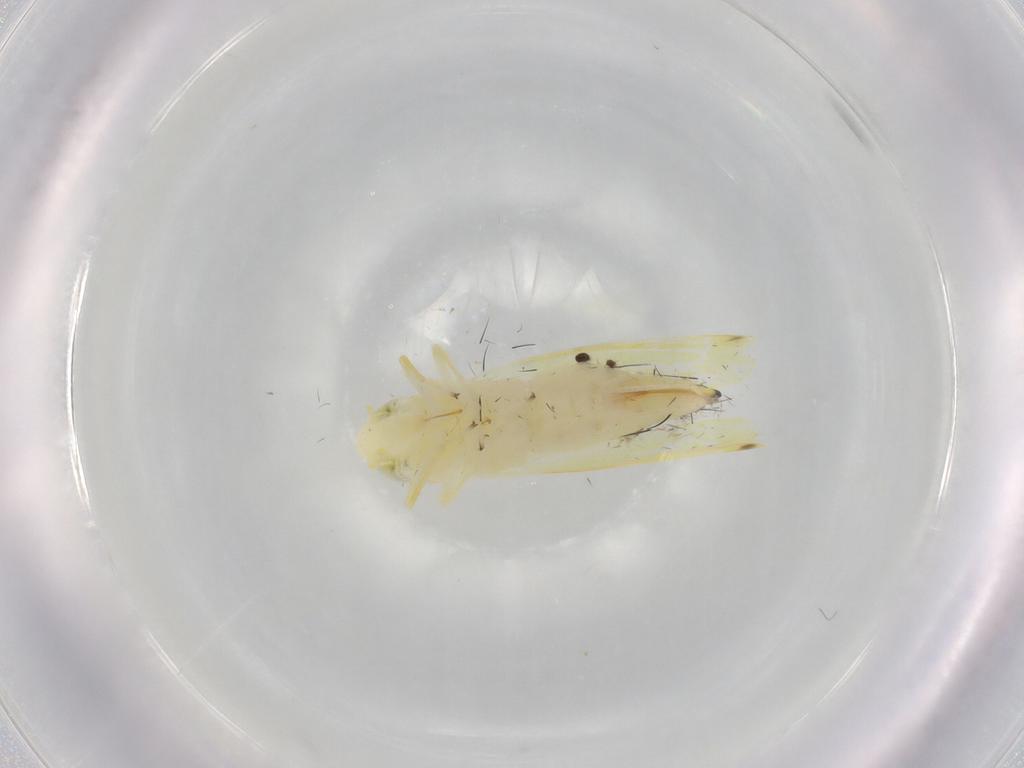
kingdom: Animalia
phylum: Arthropoda
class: Insecta
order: Hemiptera
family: Cicadellidae
